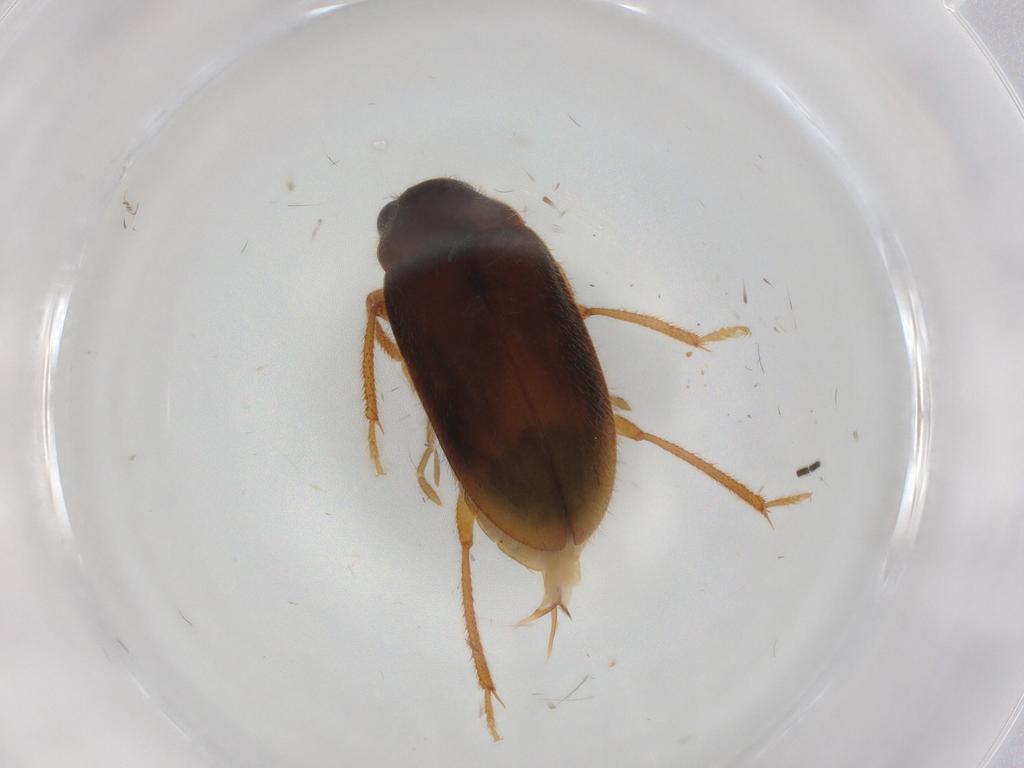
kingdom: Animalia
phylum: Arthropoda
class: Insecta
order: Coleoptera
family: Ptilodactylidae
